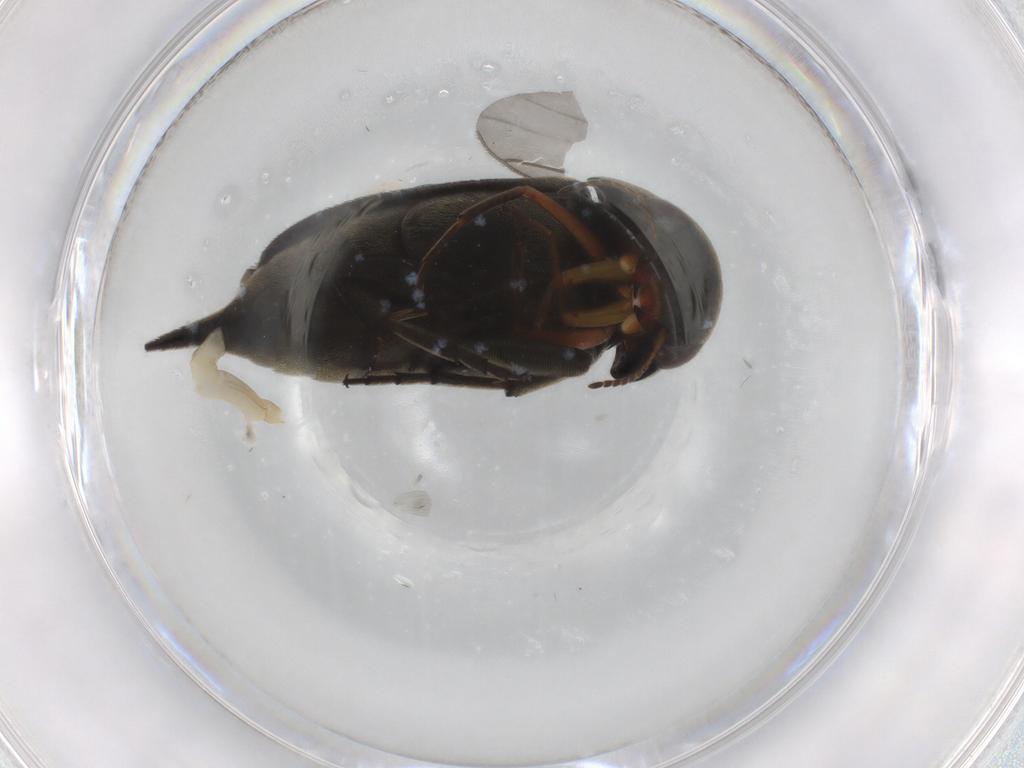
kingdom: Animalia
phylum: Arthropoda
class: Insecta
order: Coleoptera
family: Mordellidae
